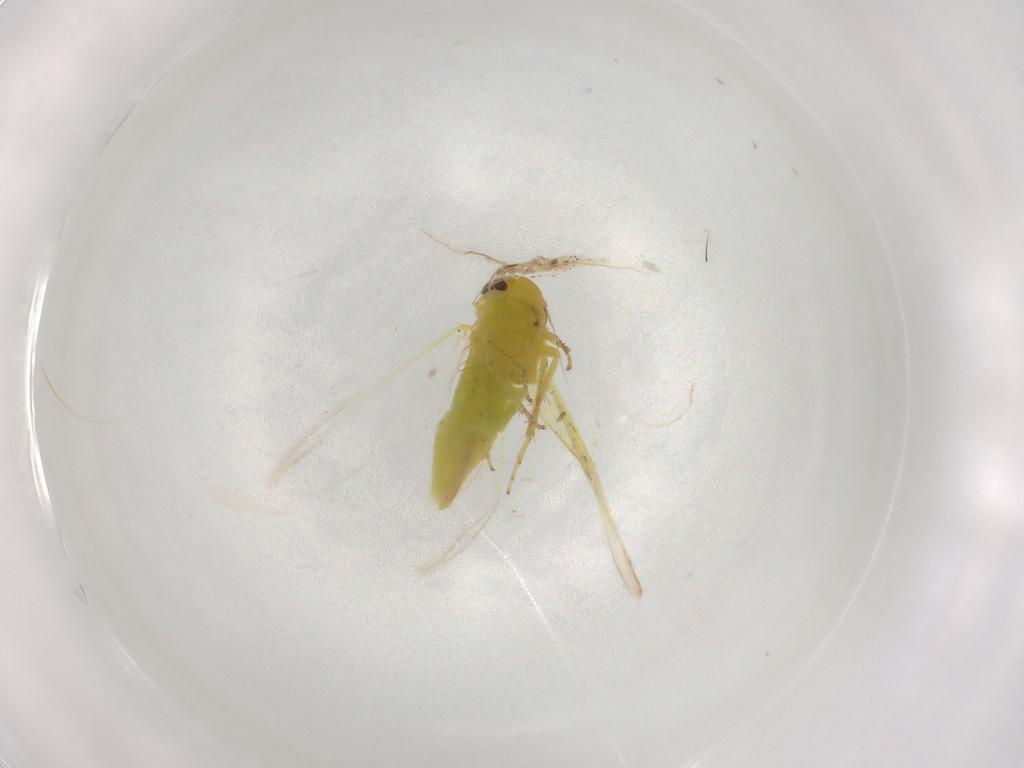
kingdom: Animalia
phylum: Arthropoda
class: Insecta
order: Hemiptera
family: Cicadellidae
